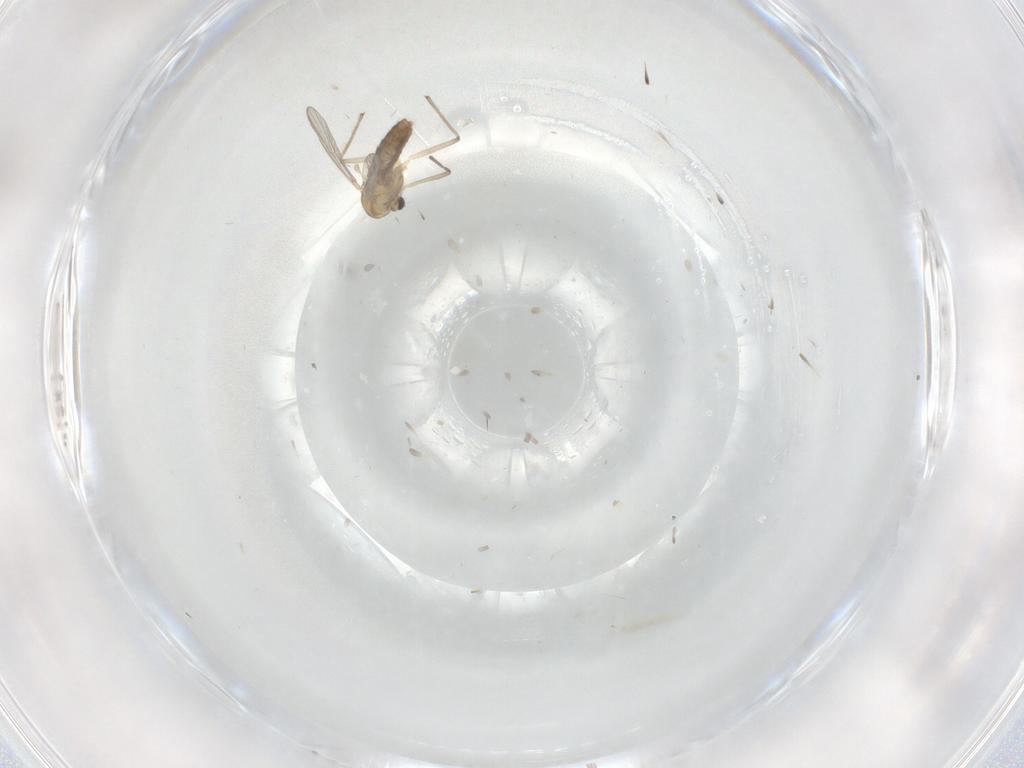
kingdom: Animalia
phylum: Arthropoda
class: Insecta
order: Diptera
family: Chironomidae
